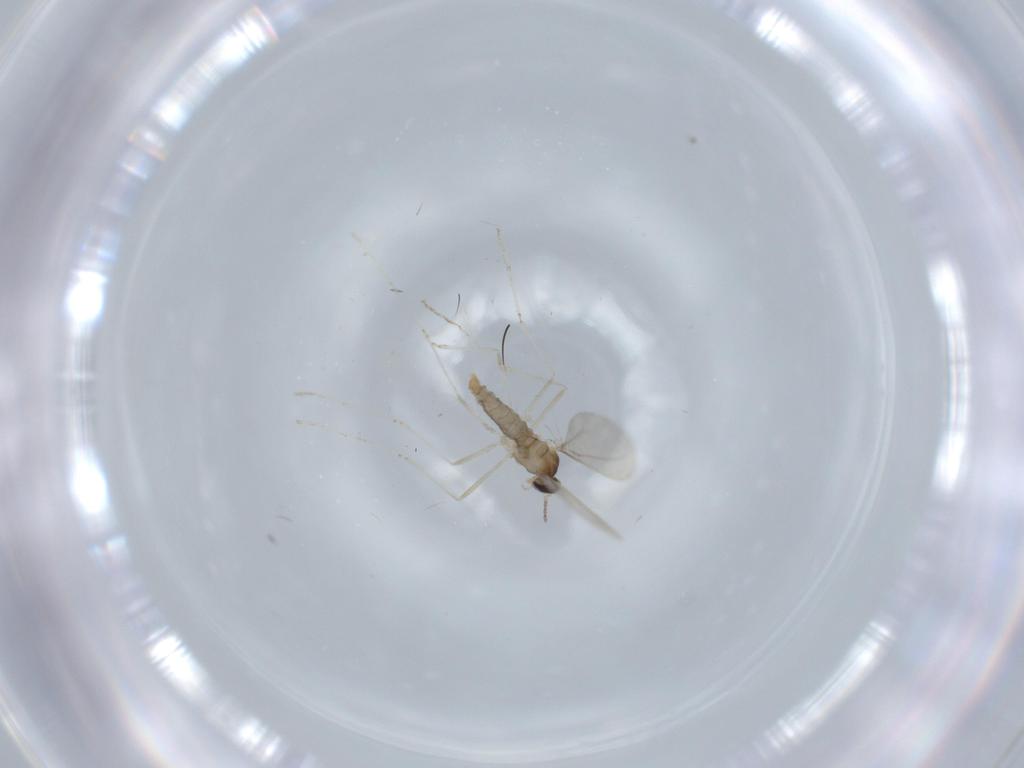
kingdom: Animalia
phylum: Arthropoda
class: Insecta
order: Diptera
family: Cecidomyiidae
